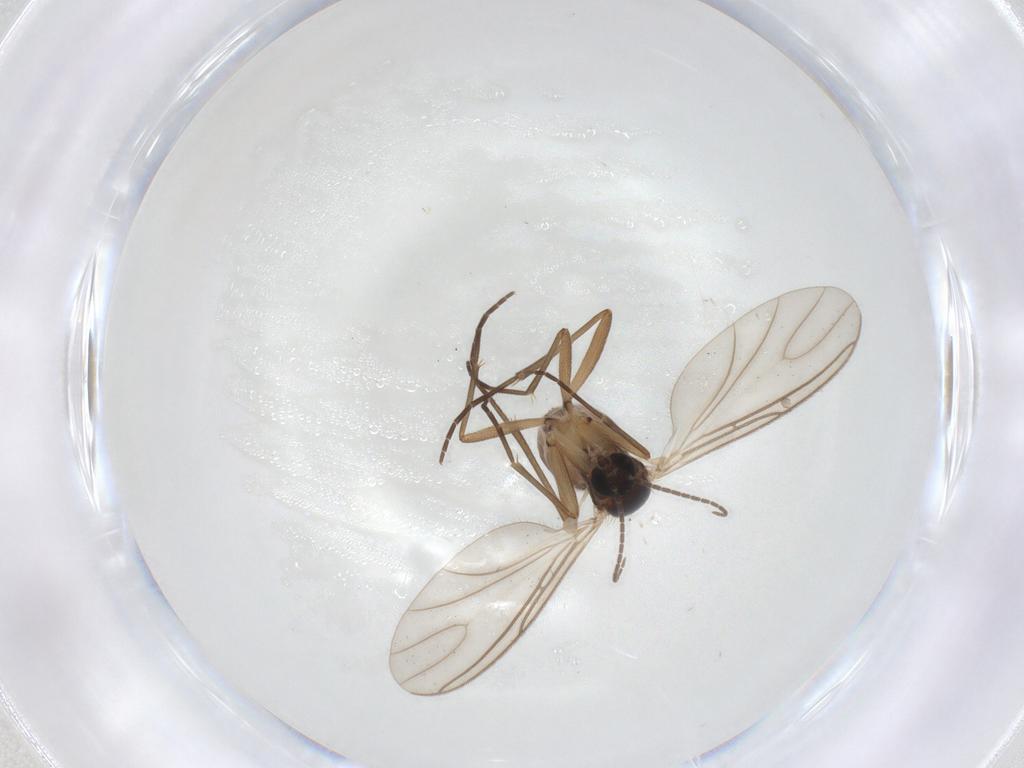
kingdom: Animalia
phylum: Arthropoda
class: Insecta
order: Diptera
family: Sciaridae
